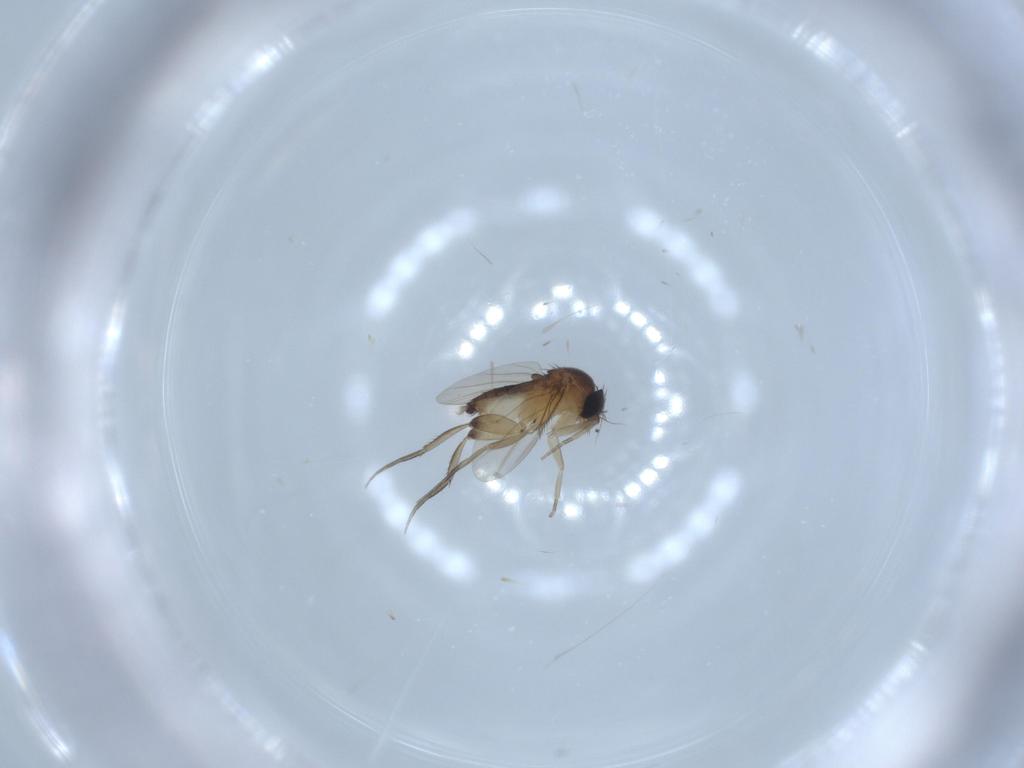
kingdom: Animalia
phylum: Arthropoda
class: Insecta
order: Diptera
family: Phoridae
